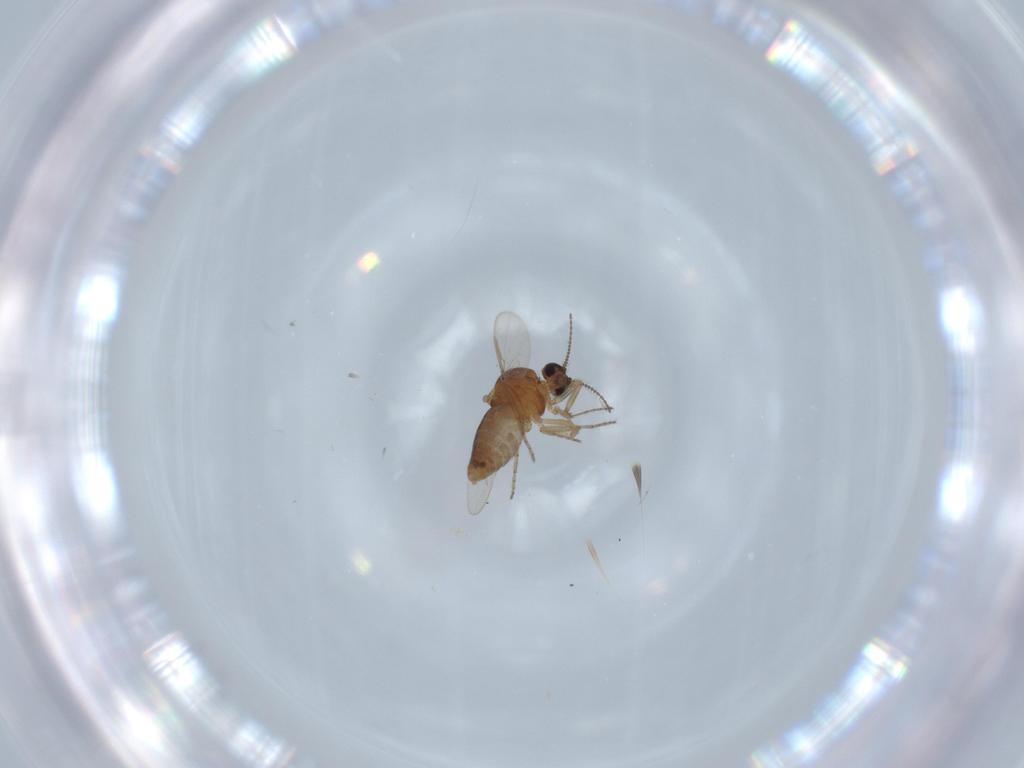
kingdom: Animalia
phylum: Arthropoda
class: Insecta
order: Diptera
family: Ceratopogonidae
